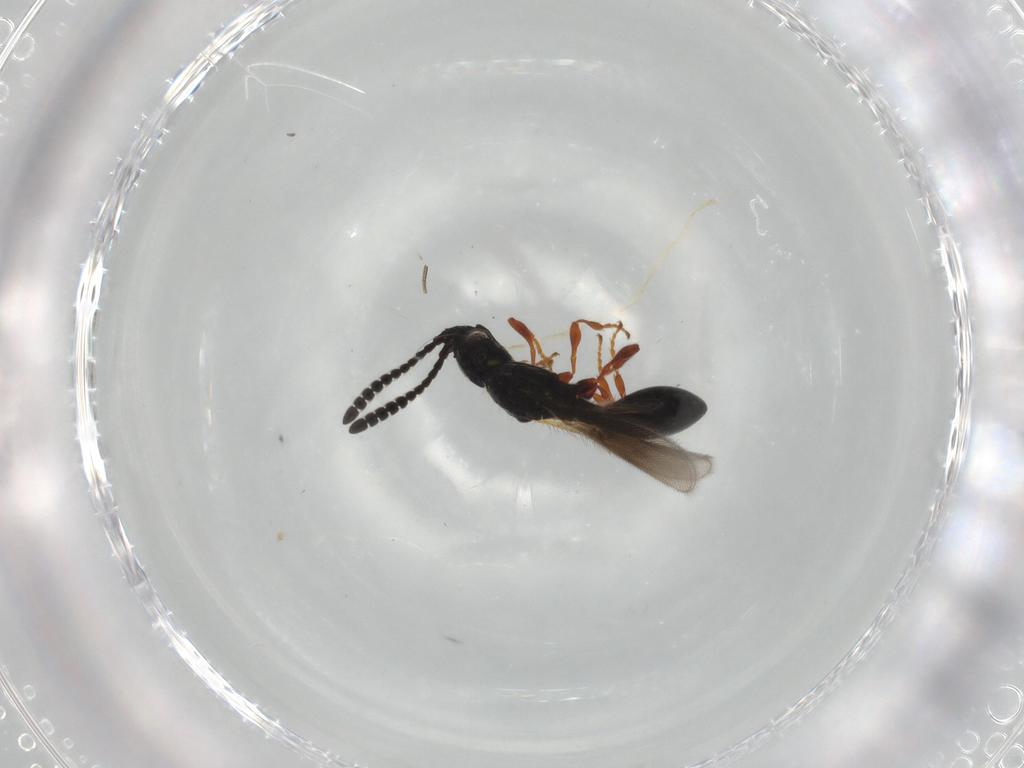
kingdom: Animalia
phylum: Arthropoda
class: Insecta
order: Hymenoptera
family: Diapriidae
